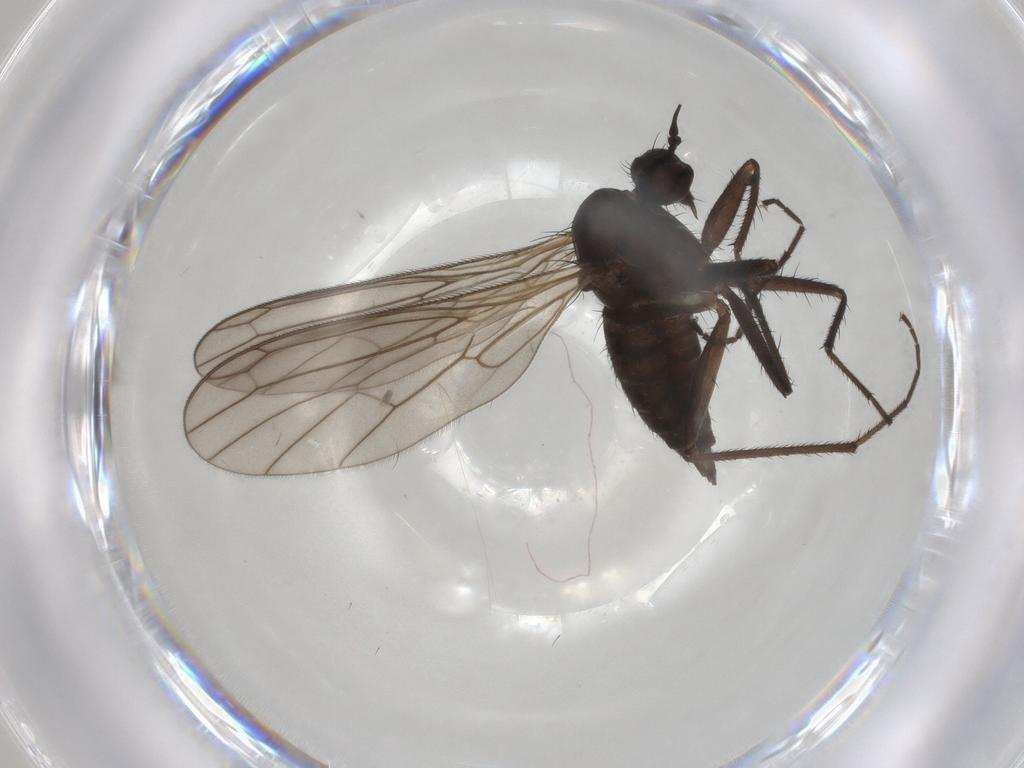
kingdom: Animalia
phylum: Arthropoda
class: Insecta
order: Diptera
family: Empididae
